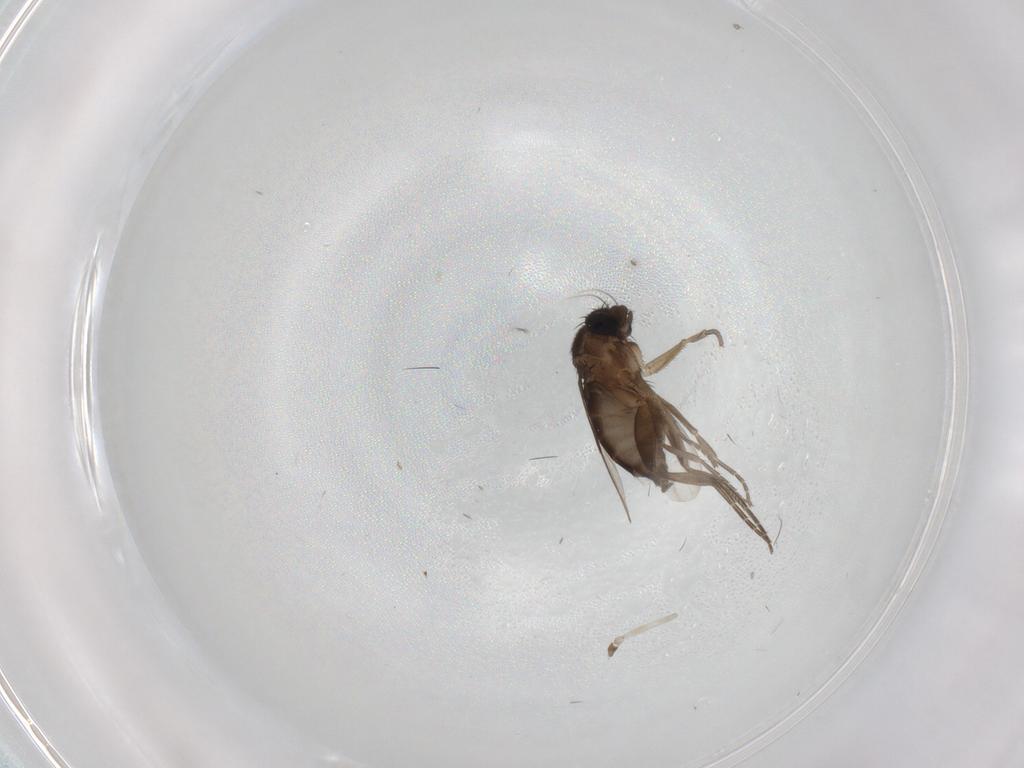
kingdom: Animalia
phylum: Arthropoda
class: Insecta
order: Diptera
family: Phoridae
